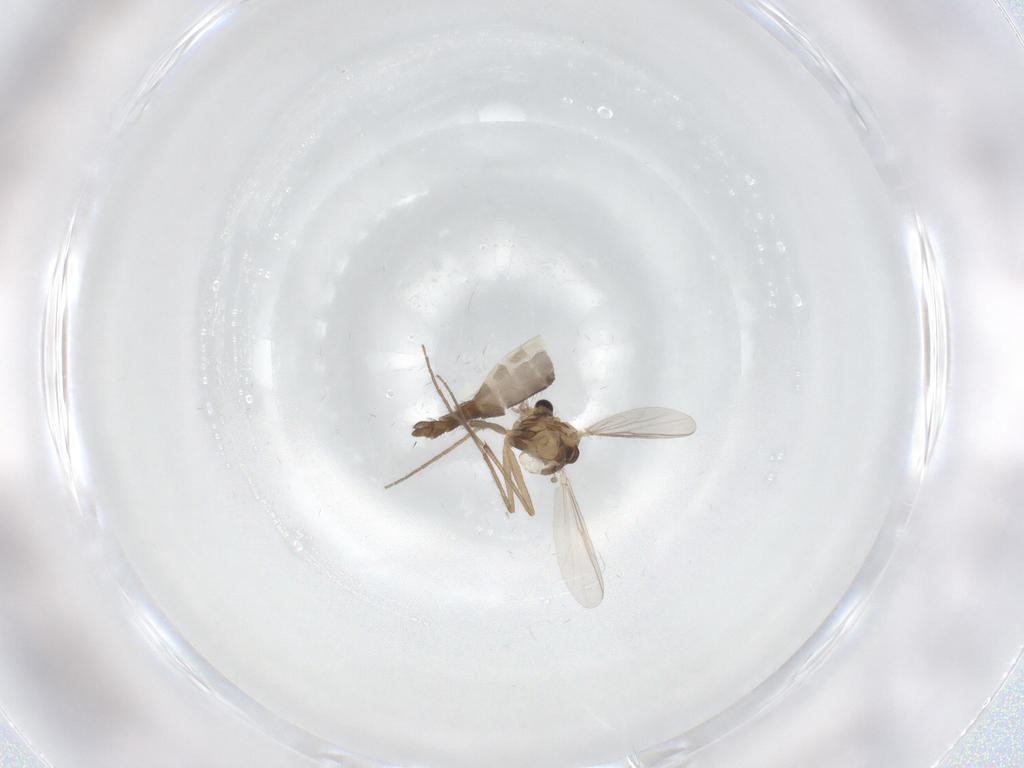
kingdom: Animalia
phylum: Arthropoda
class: Insecta
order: Diptera
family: Chironomidae
